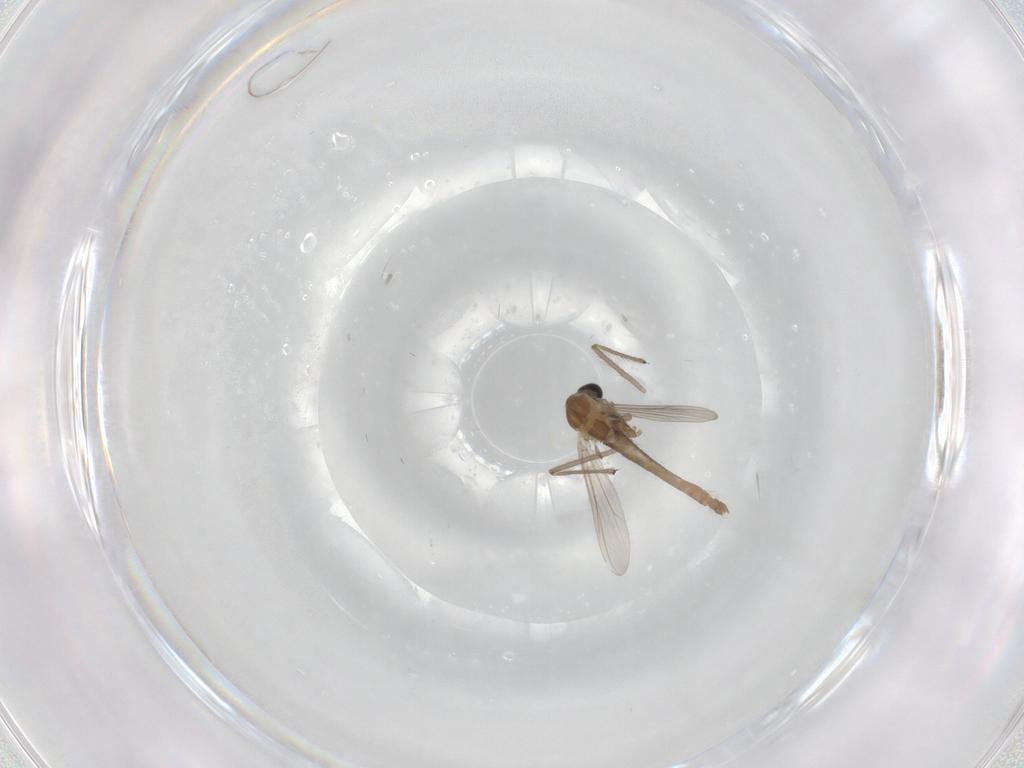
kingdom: Animalia
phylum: Arthropoda
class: Insecta
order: Diptera
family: Chironomidae
